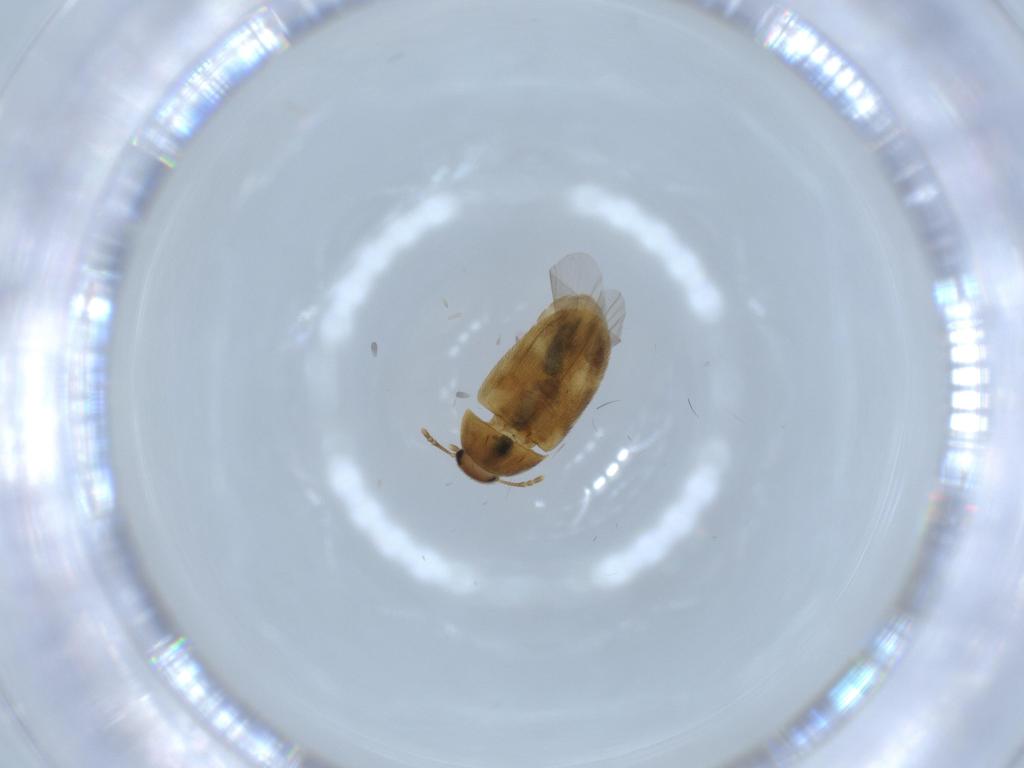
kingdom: Animalia
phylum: Arthropoda
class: Insecta
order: Coleoptera
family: Mycetophagidae
